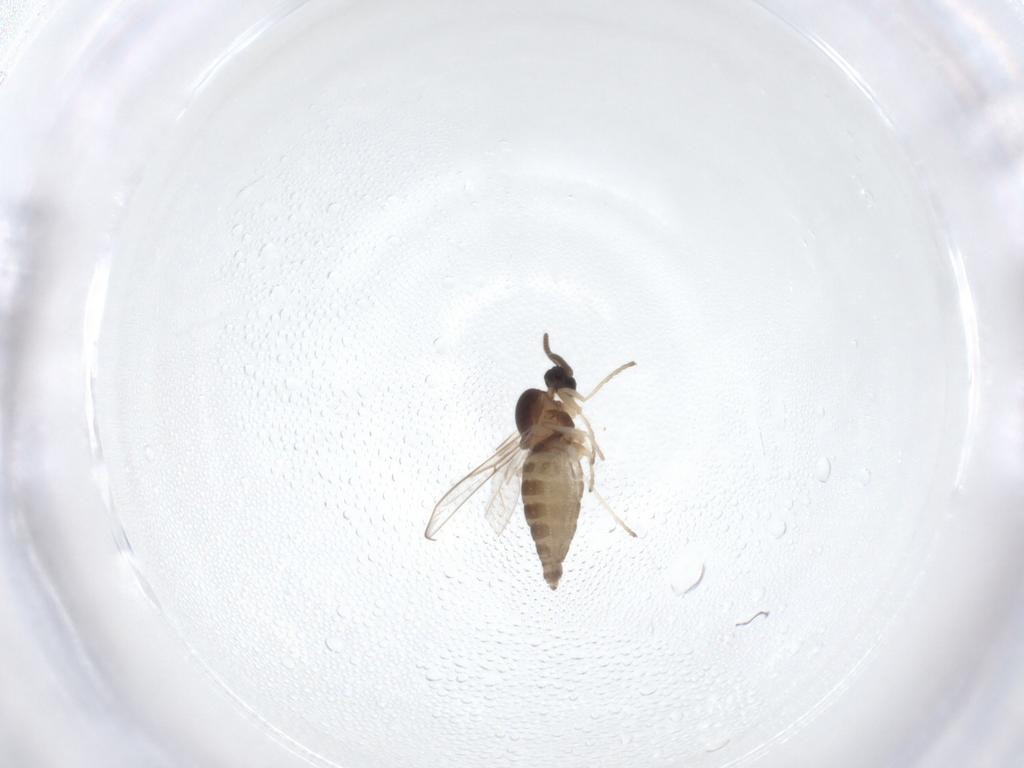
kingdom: Animalia
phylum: Arthropoda
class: Insecta
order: Diptera
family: Cecidomyiidae
